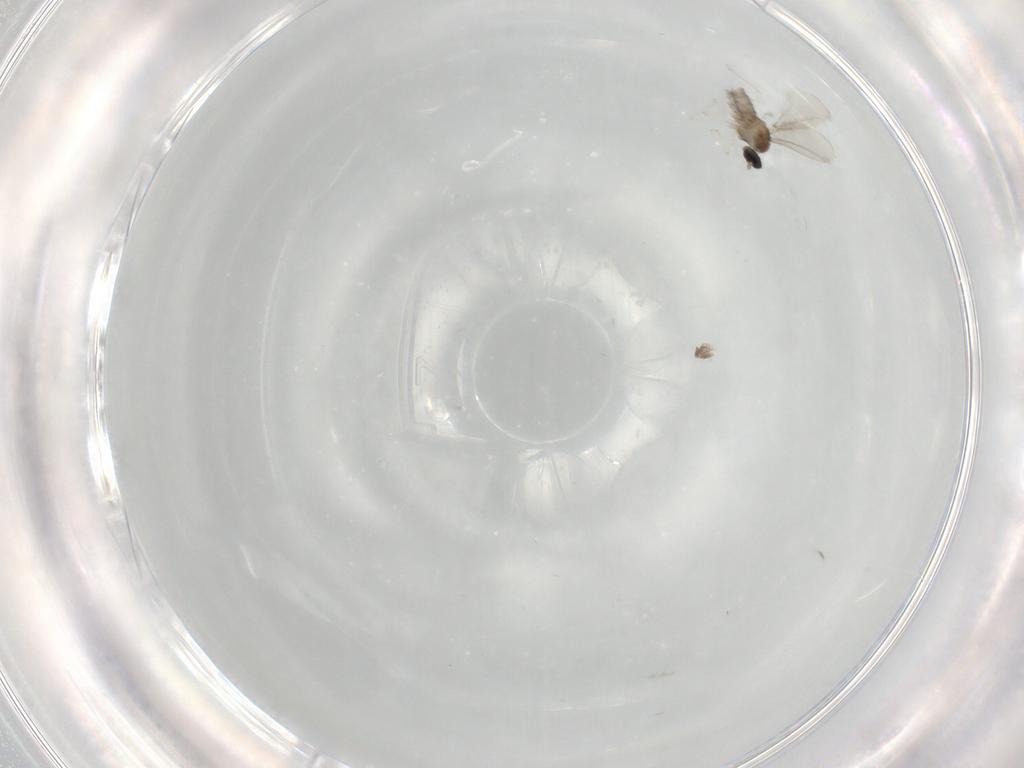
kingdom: Animalia
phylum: Arthropoda
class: Insecta
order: Diptera
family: Cecidomyiidae
